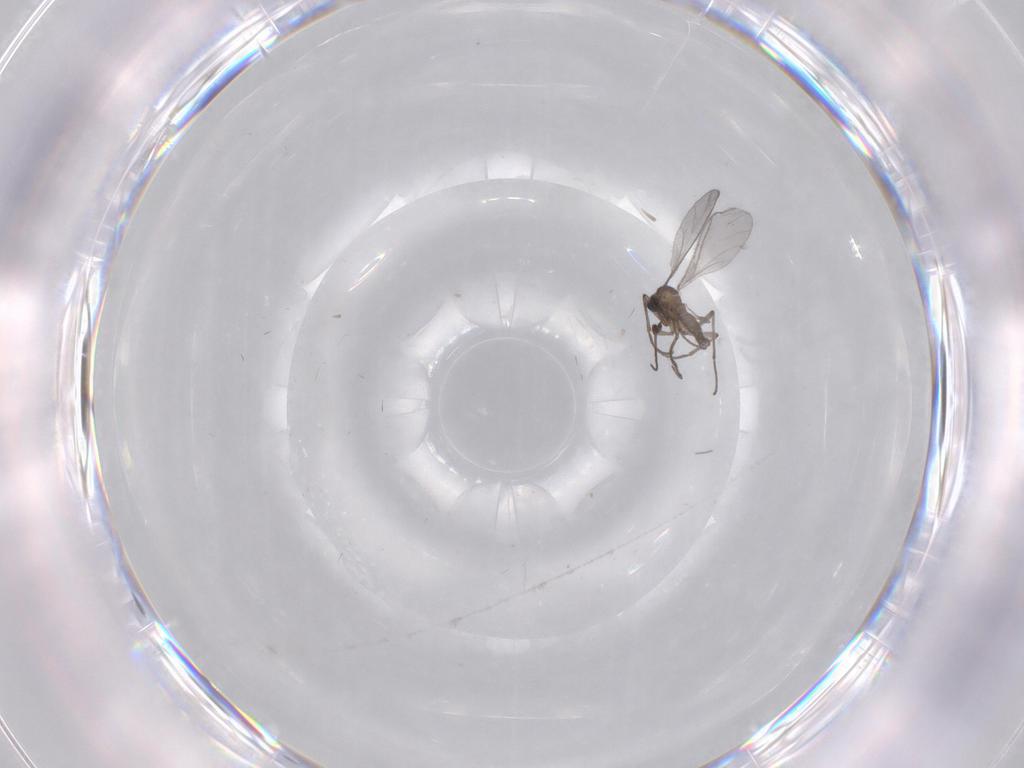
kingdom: Animalia
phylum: Arthropoda
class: Insecta
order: Diptera
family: Sciaridae
